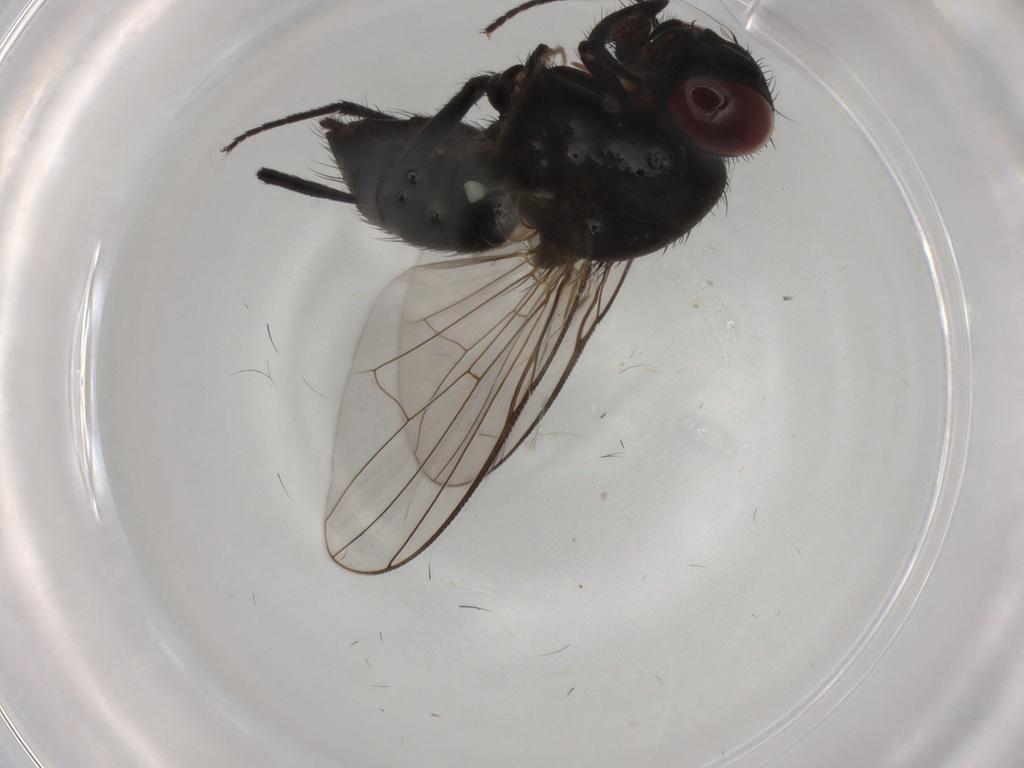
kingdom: Animalia
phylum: Arthropoda
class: Insecta
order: Diptera
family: Muscidae
